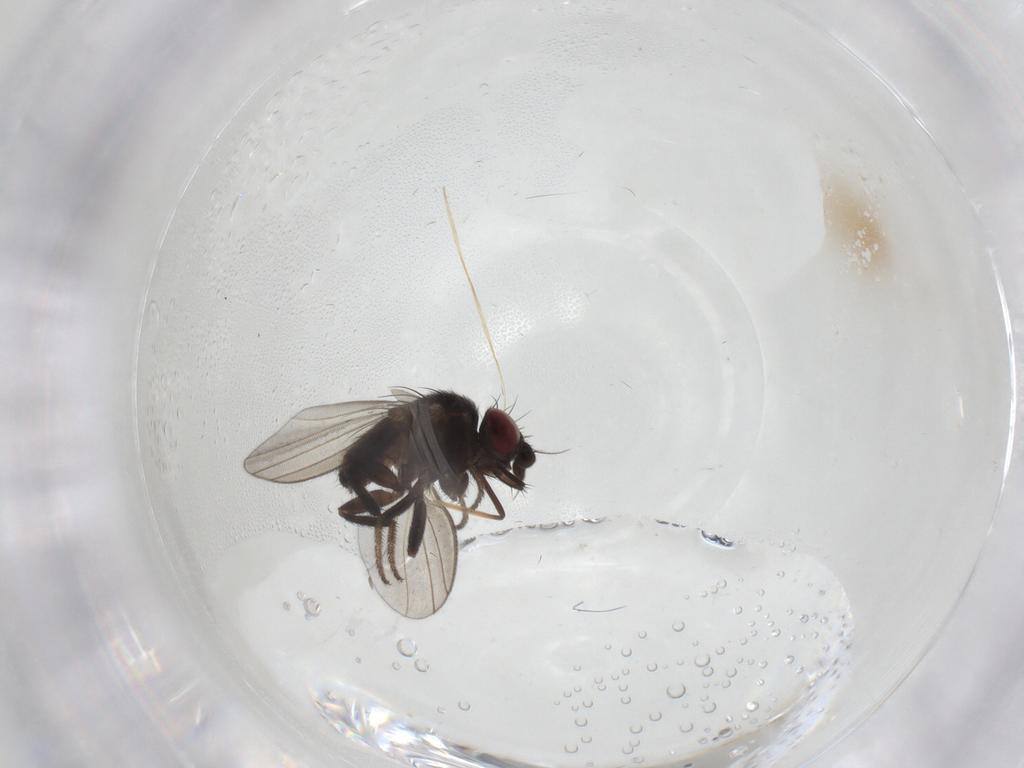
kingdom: Animalia
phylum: Arthropoda
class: Insecta
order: Diptera
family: Milichiidae
